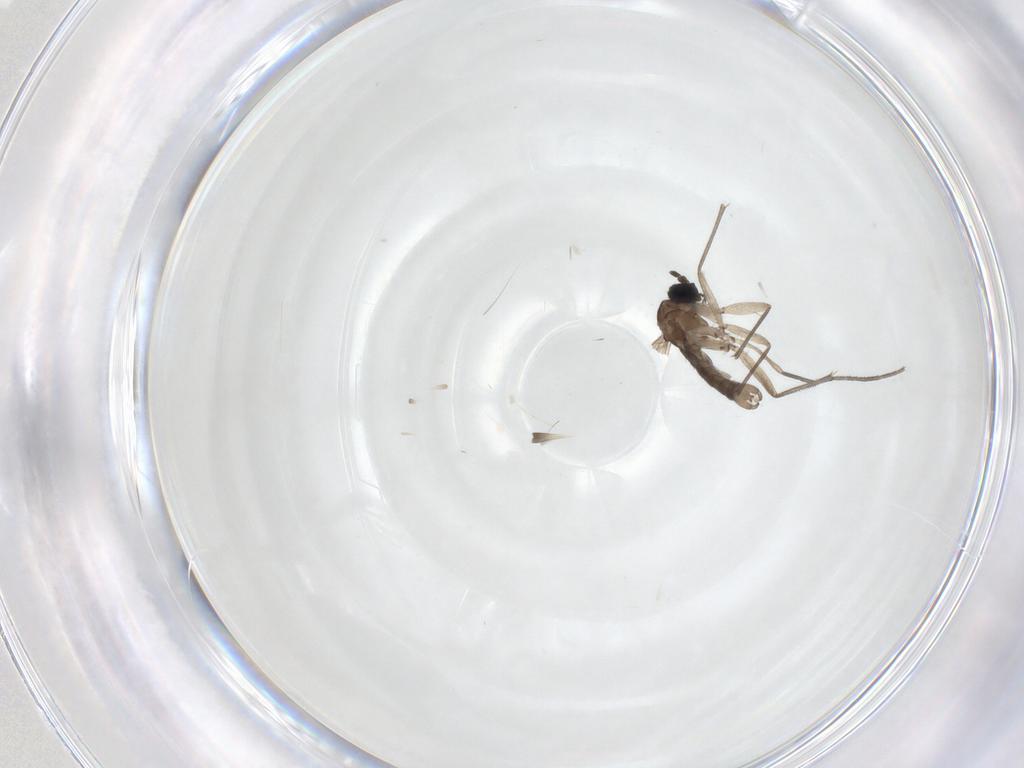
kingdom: Animalia
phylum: Arthropoda
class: Insecta
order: Diptera
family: Sciaridae
